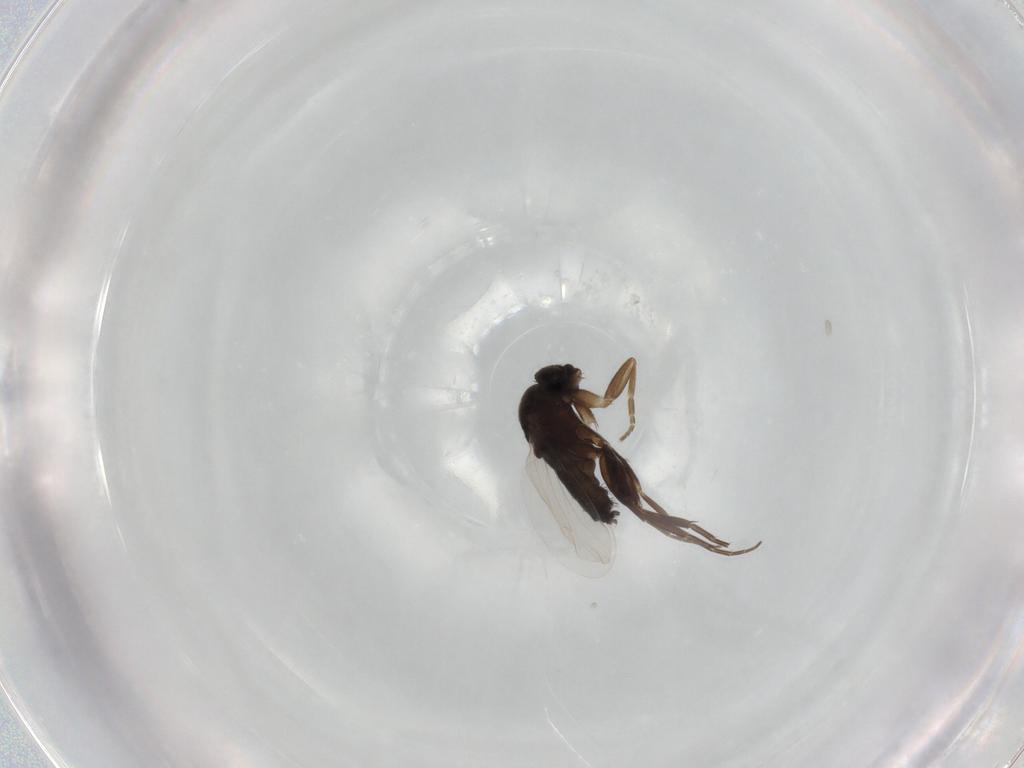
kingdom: Animalia
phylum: Arthropoda
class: Insecta
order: Diptera
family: Phoridae
